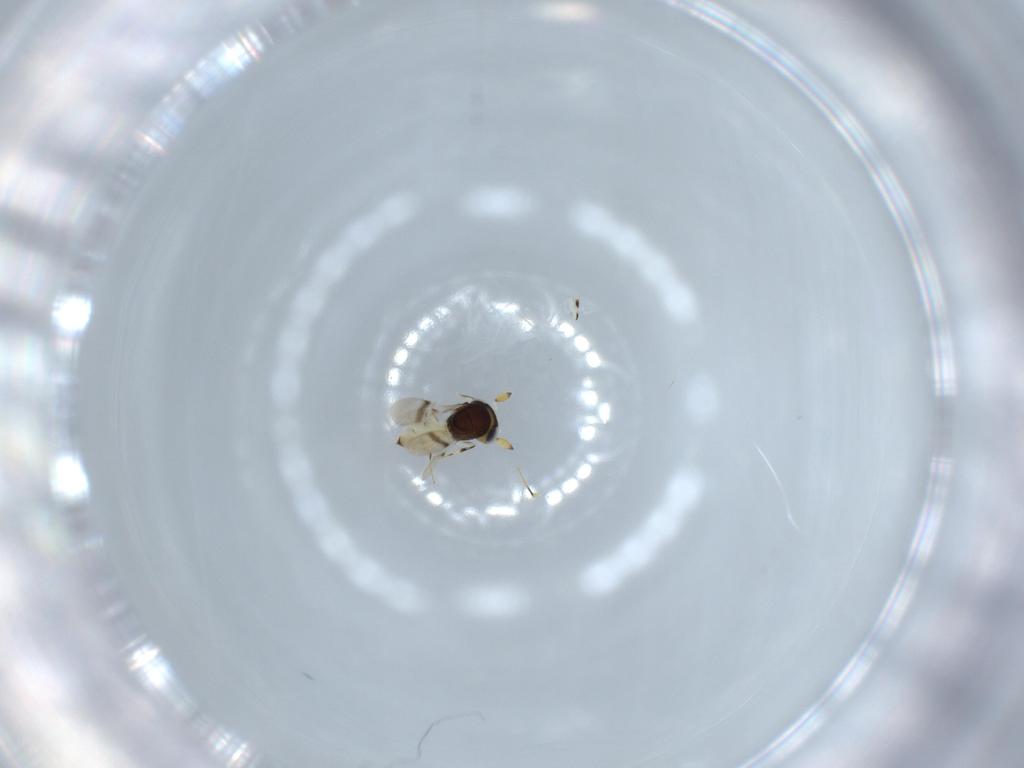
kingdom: Animalia
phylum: Arthropoda
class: Insecta
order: Hymenoptera
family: Scelionidae
